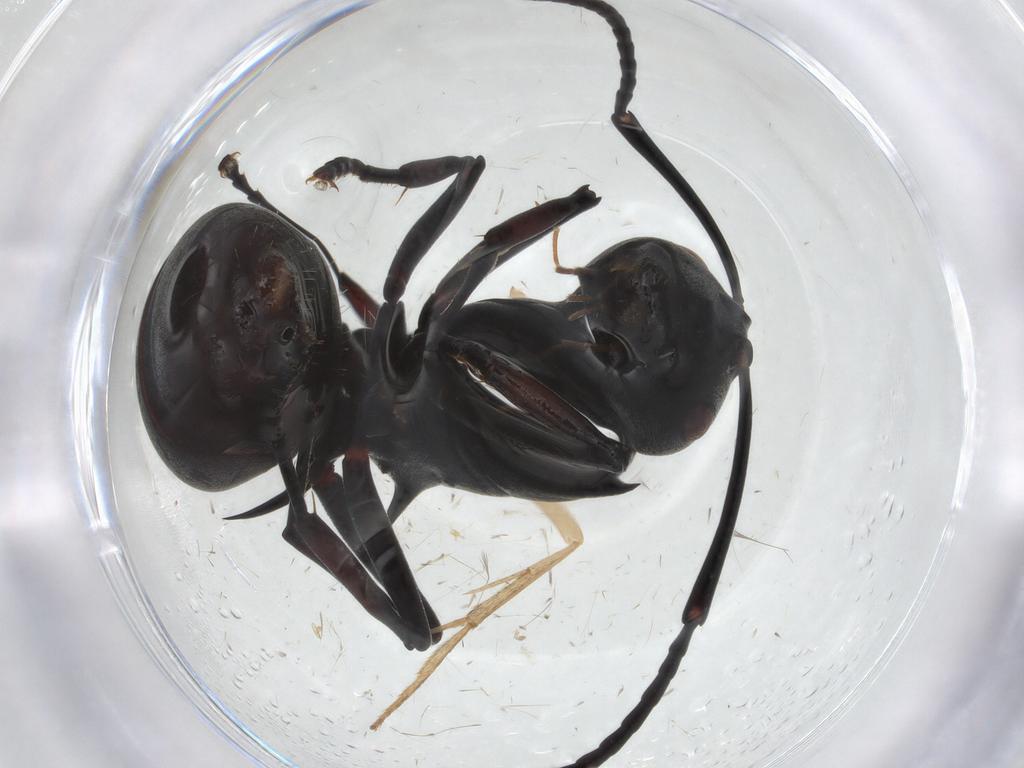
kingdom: Animalia
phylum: Arthropoda
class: Insecta
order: Hymenoptera
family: Formicidae
